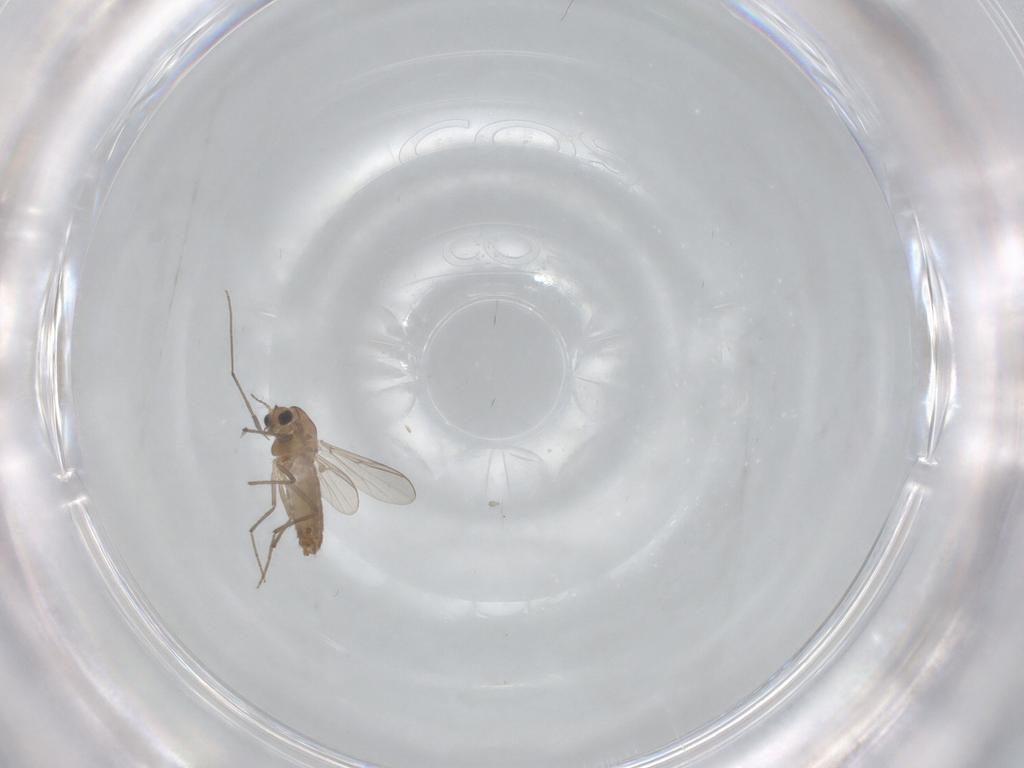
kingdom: Animalia
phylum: Arthropoda
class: Insecta
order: Diptera
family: Chironomidae
